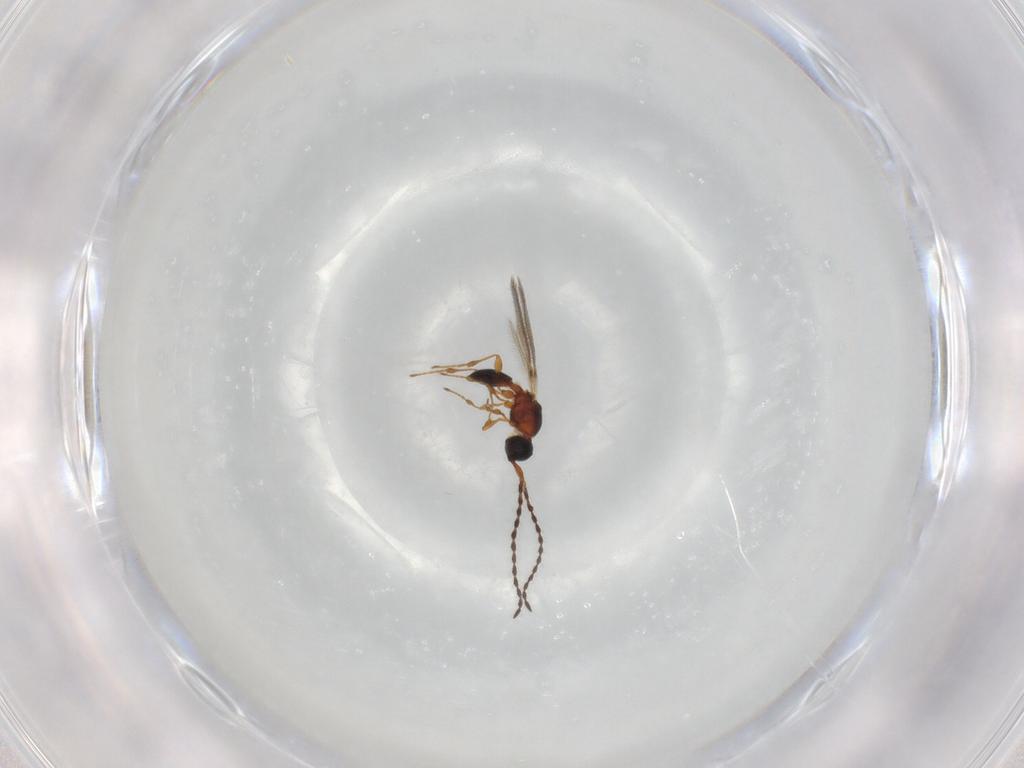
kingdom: Animalia
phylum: Arthropoda
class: Insecta
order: Hymenoptera
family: Diapriidae
